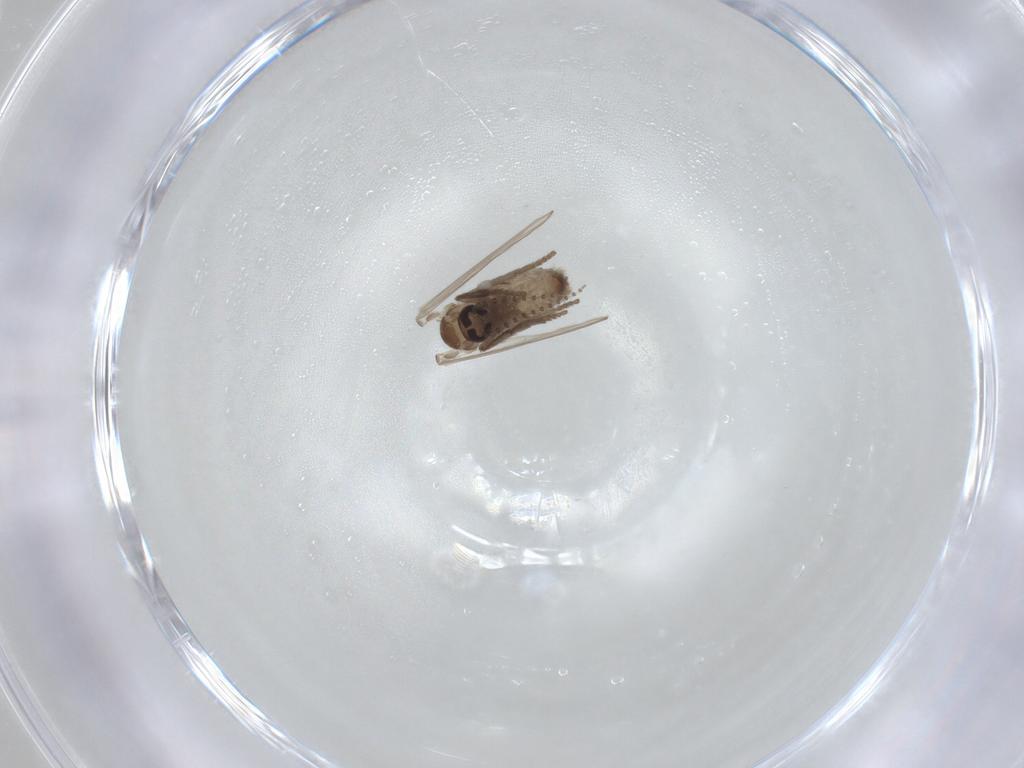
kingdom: Animalia
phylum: Arthropoda
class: Insecta
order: Diptera
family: Psychodidae
